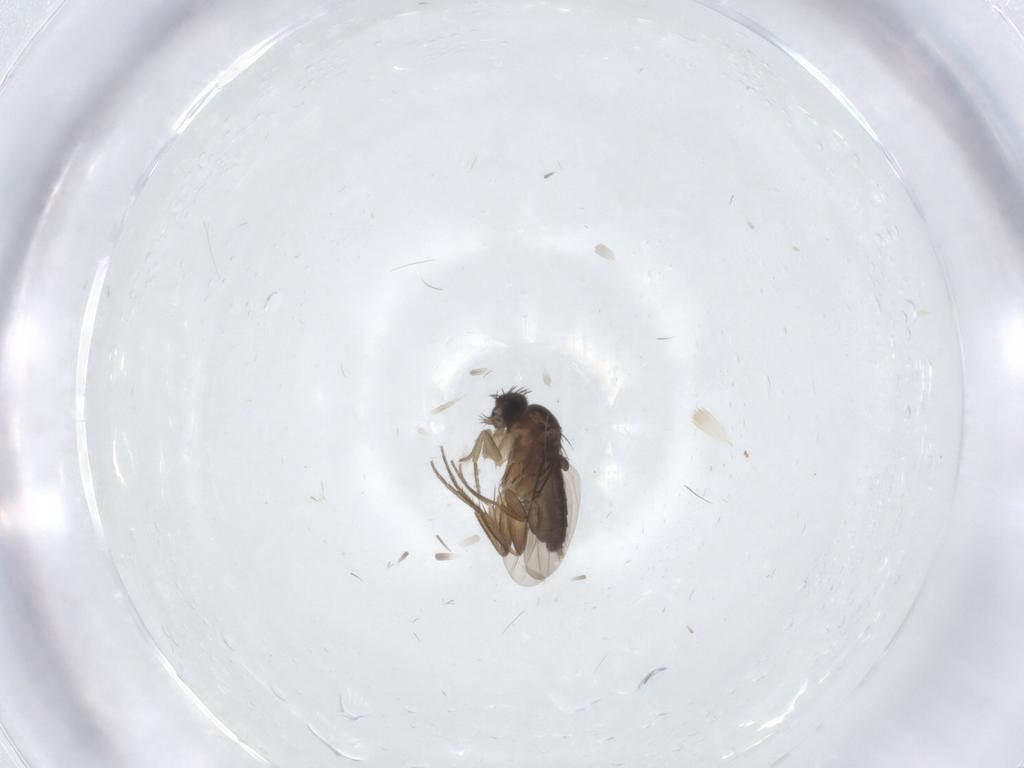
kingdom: Animalia
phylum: Arthropoda
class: Insecta
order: Diptera
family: Phoridae
